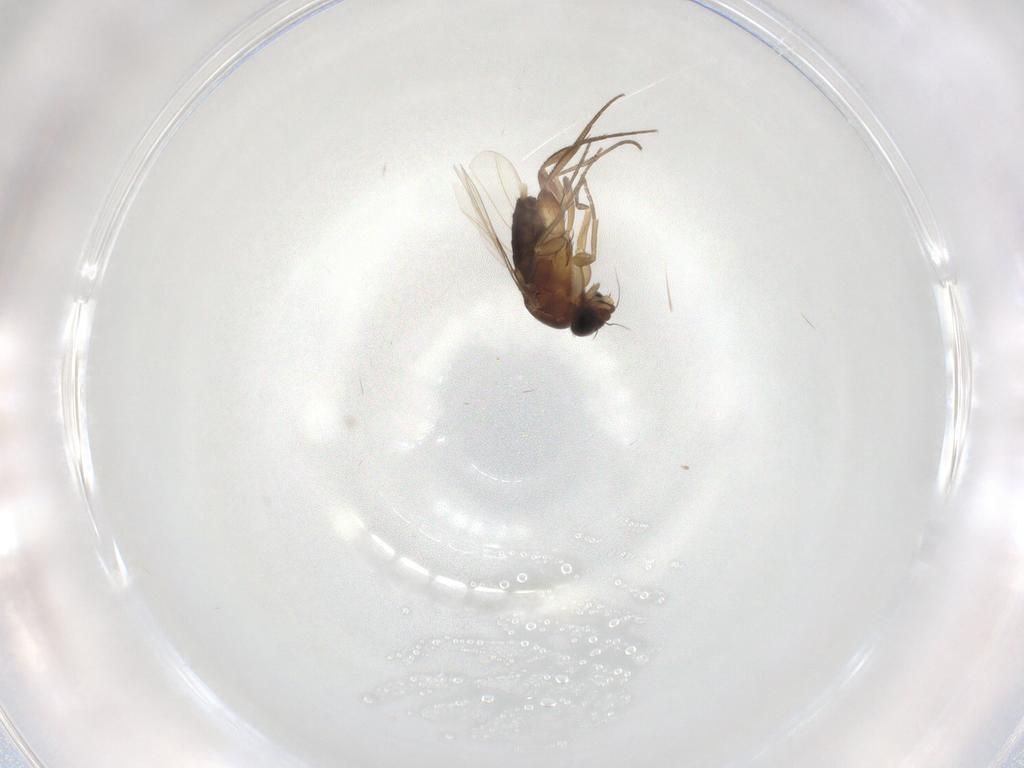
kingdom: Animalia
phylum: Arthropoda
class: Insecta
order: Diptera
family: Phoridae
